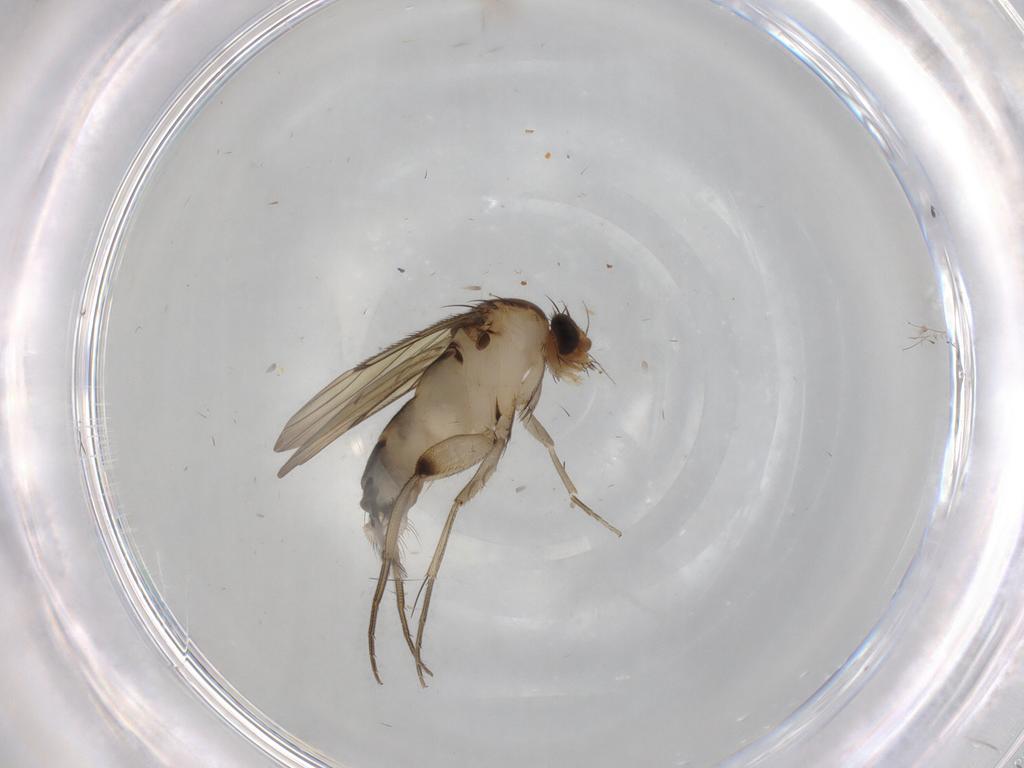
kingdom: Animalia
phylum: Arthropoda
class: Insecta
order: Diptera
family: Phoridae
